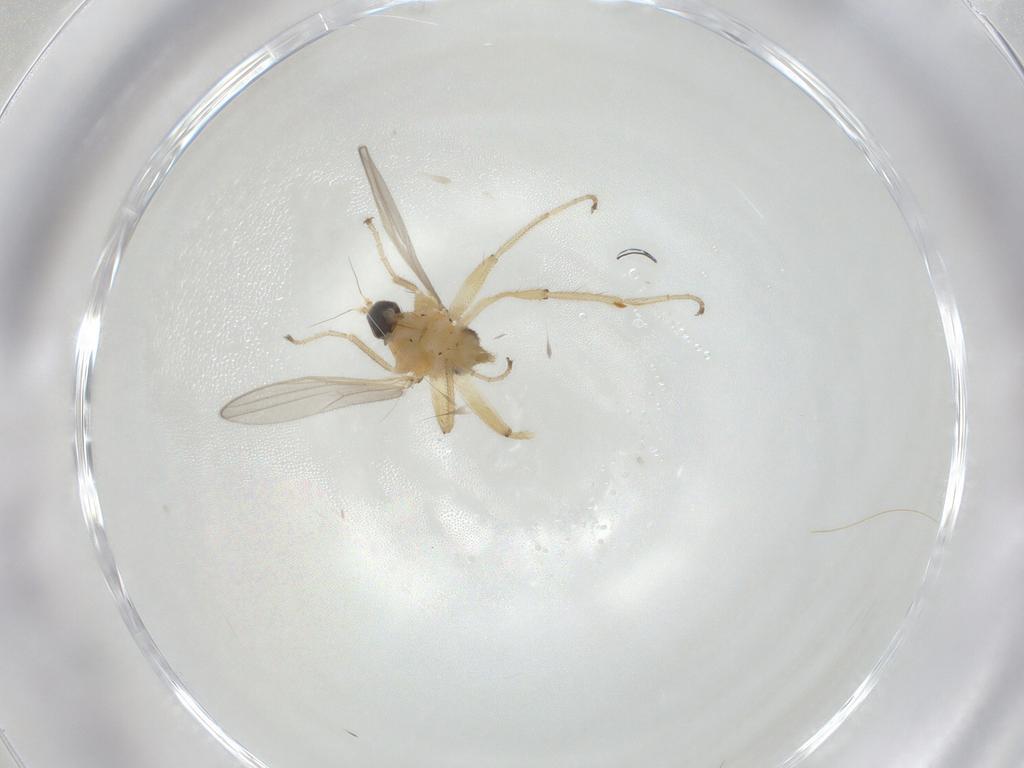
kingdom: Animalia
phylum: Arthropoda
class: Insecta
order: Diptera
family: Hybotidae
